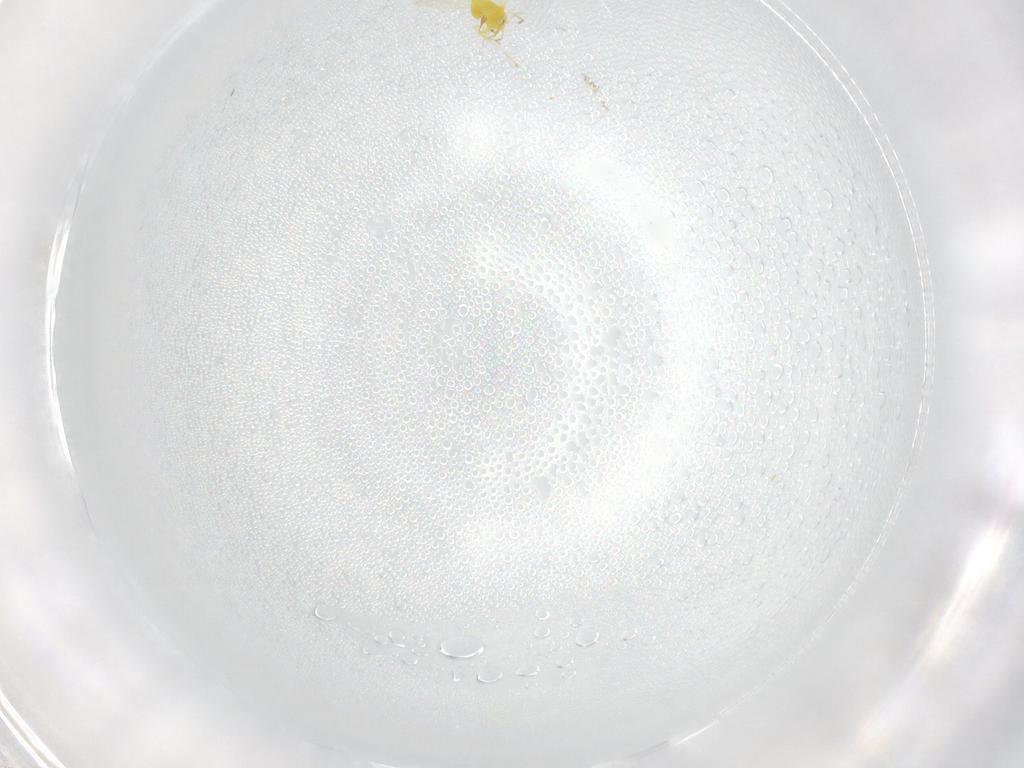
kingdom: Animalia
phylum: Arthropoda
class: Insecta
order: Hemiptera
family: Aleyrodidae
